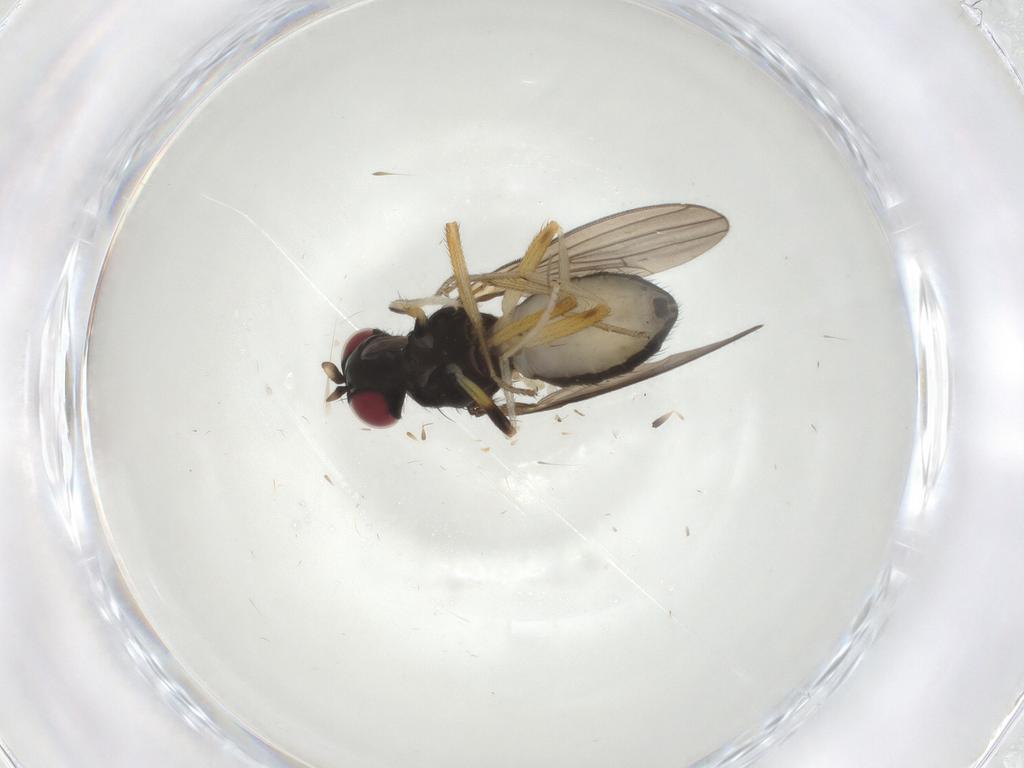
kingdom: Animalia
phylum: Arthropoda
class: Insecta
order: Diptera
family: Lauxaniidae
